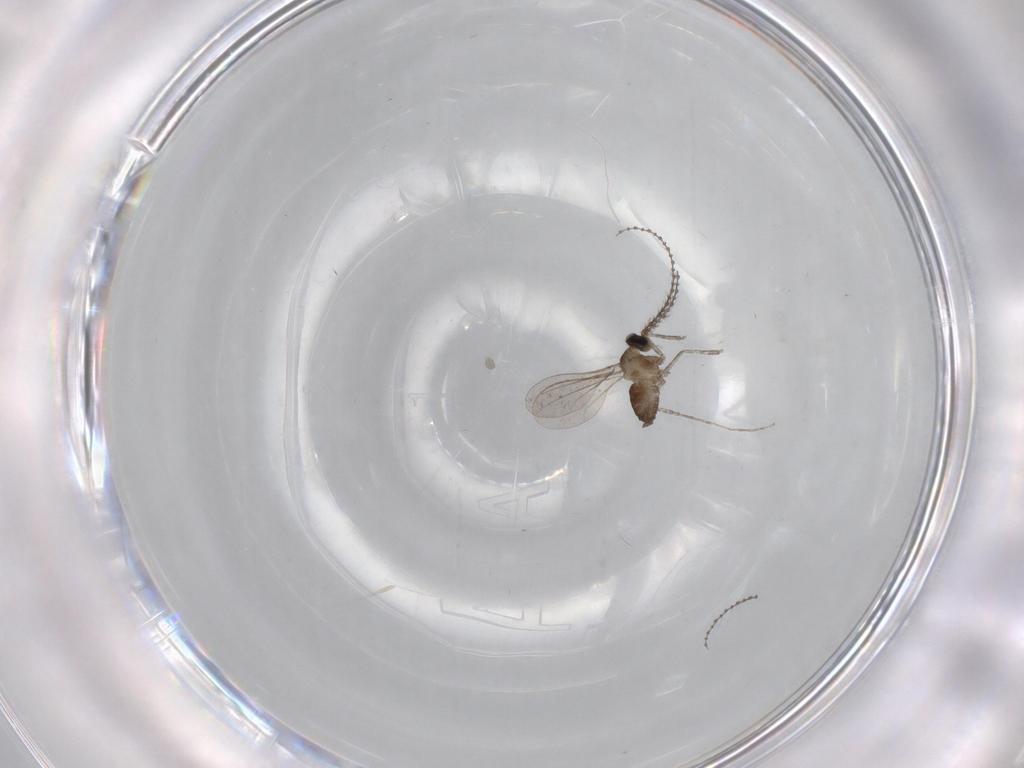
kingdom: Animalia
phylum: Arthropoda
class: Insecta
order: Diptera
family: Cecidomyiidae
